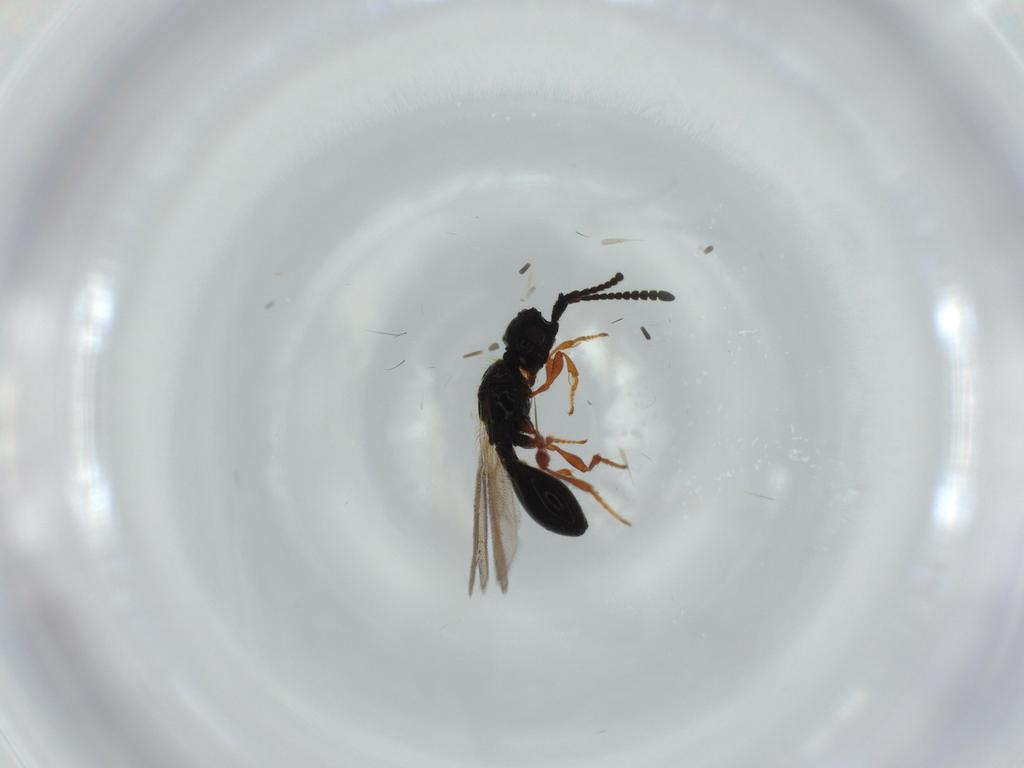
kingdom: Animalia
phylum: Arthropoda
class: Insecta
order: Hymenoptera
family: Diapriidae
